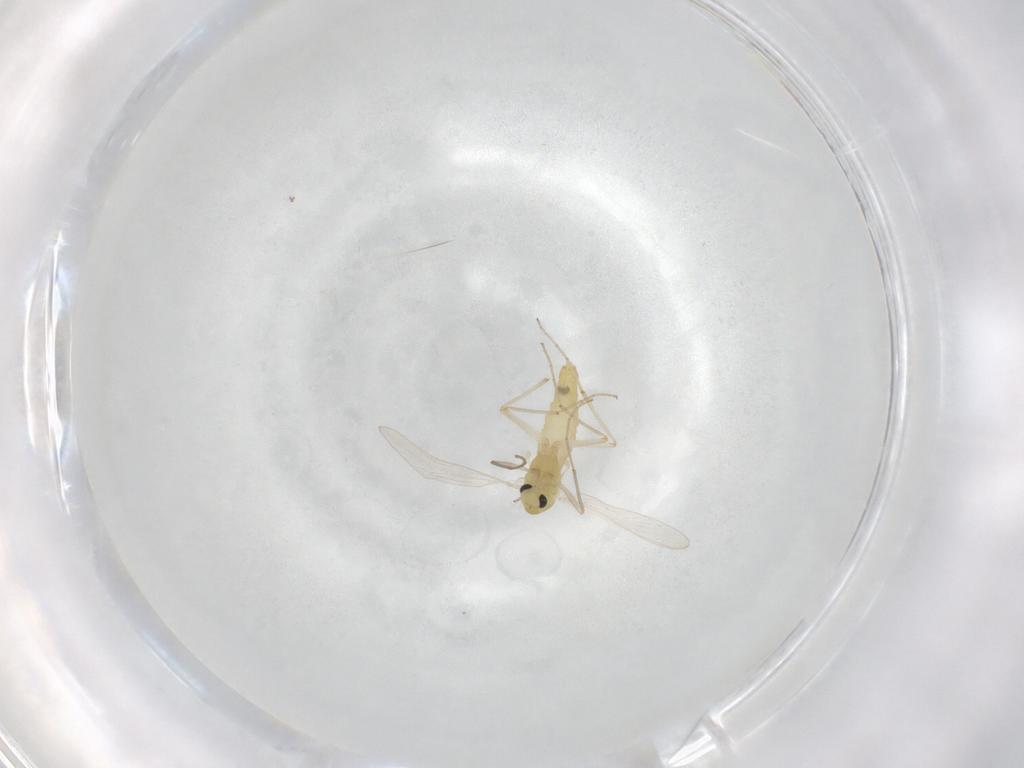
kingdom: Animalia
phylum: Arthropoda
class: Insecta
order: Diptera
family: Chironomidae
